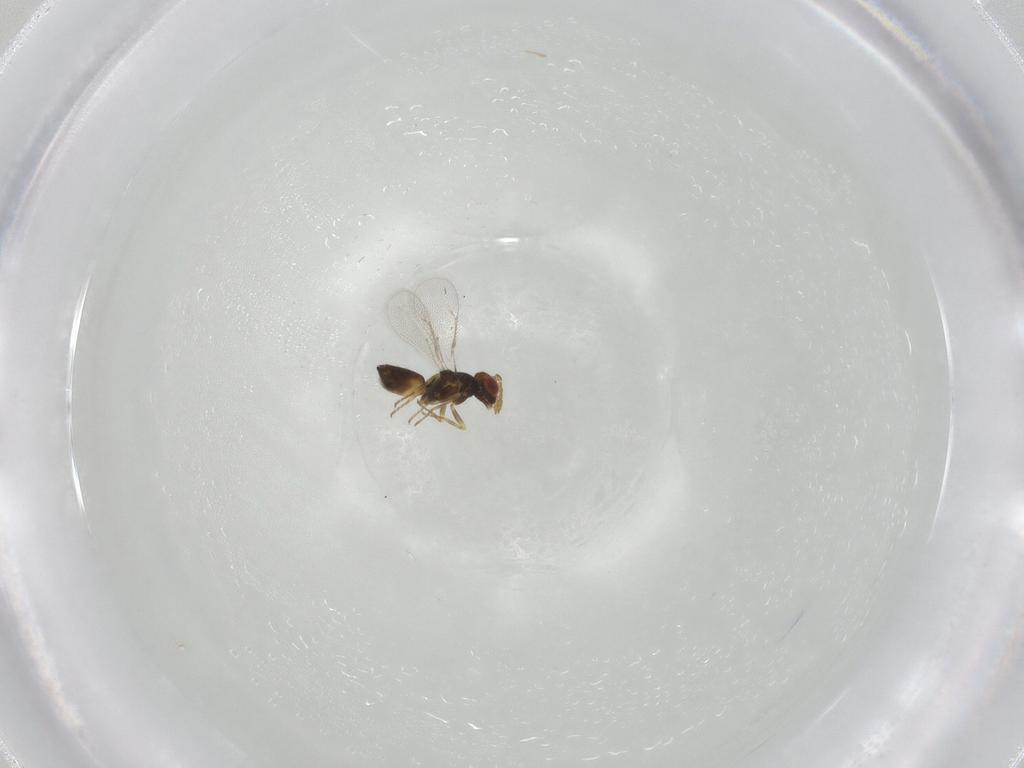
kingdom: Animalia
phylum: Arthropoda
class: Insecta
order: Hymenoptera
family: Eulophidae
